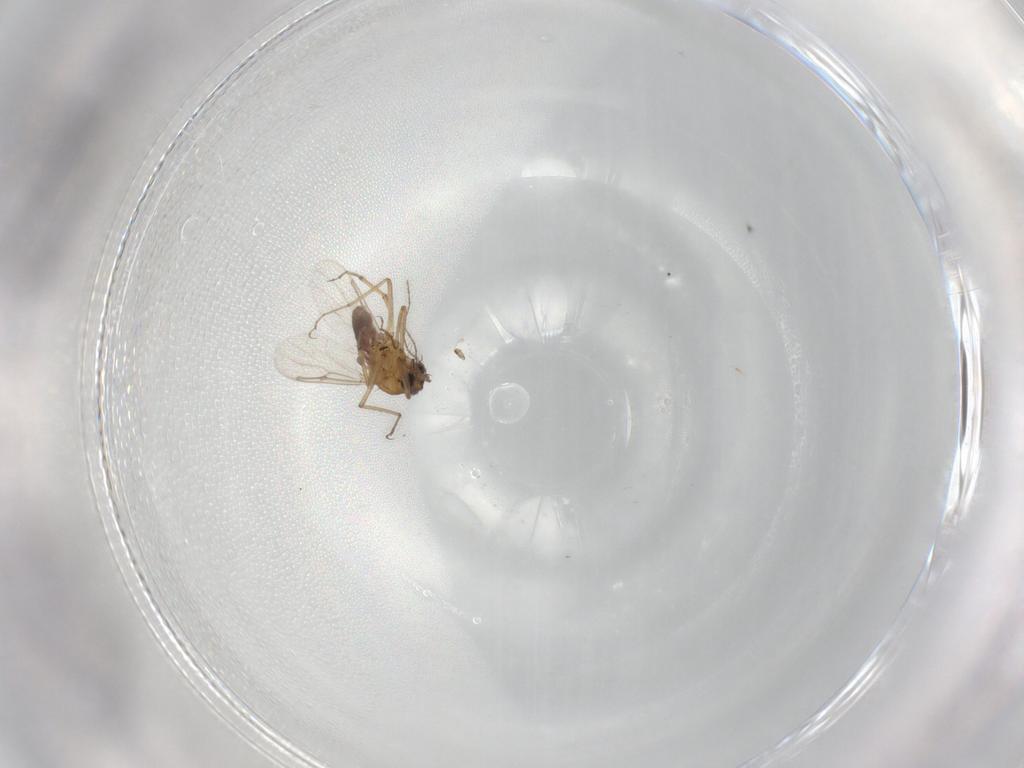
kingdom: Animalia
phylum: Arthropoda
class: Insecta
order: Diptera
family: Ceratopogonidae
